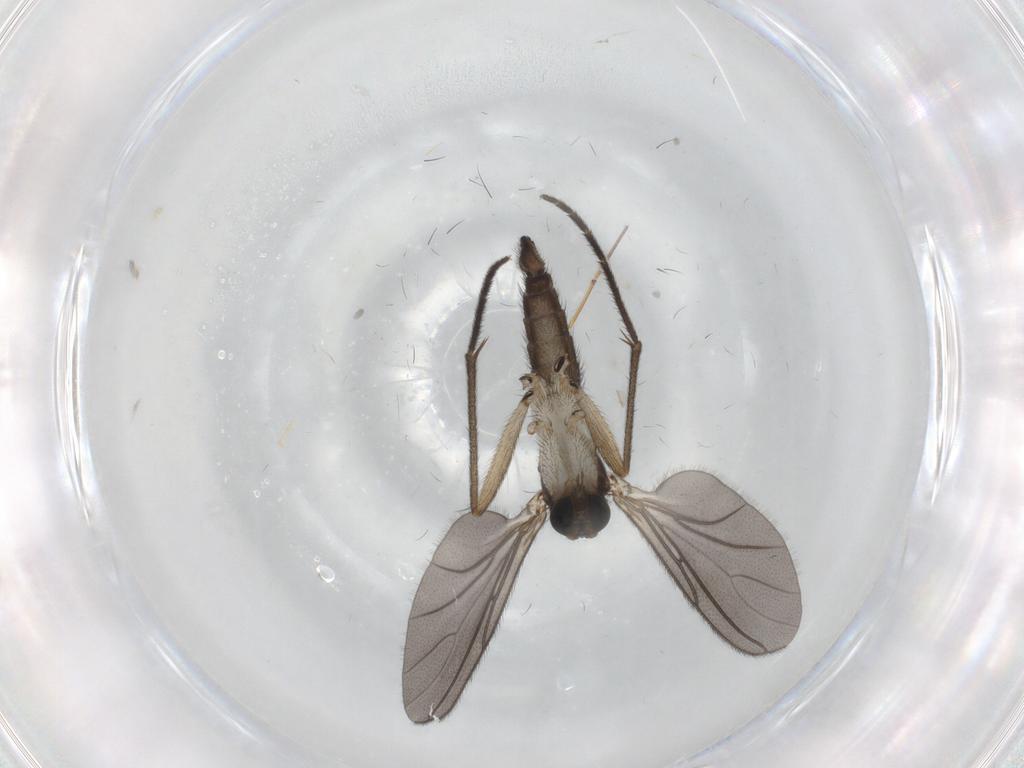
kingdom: Animalia
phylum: Arthropoda
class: Insecta
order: Diptera
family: Sciaridae
